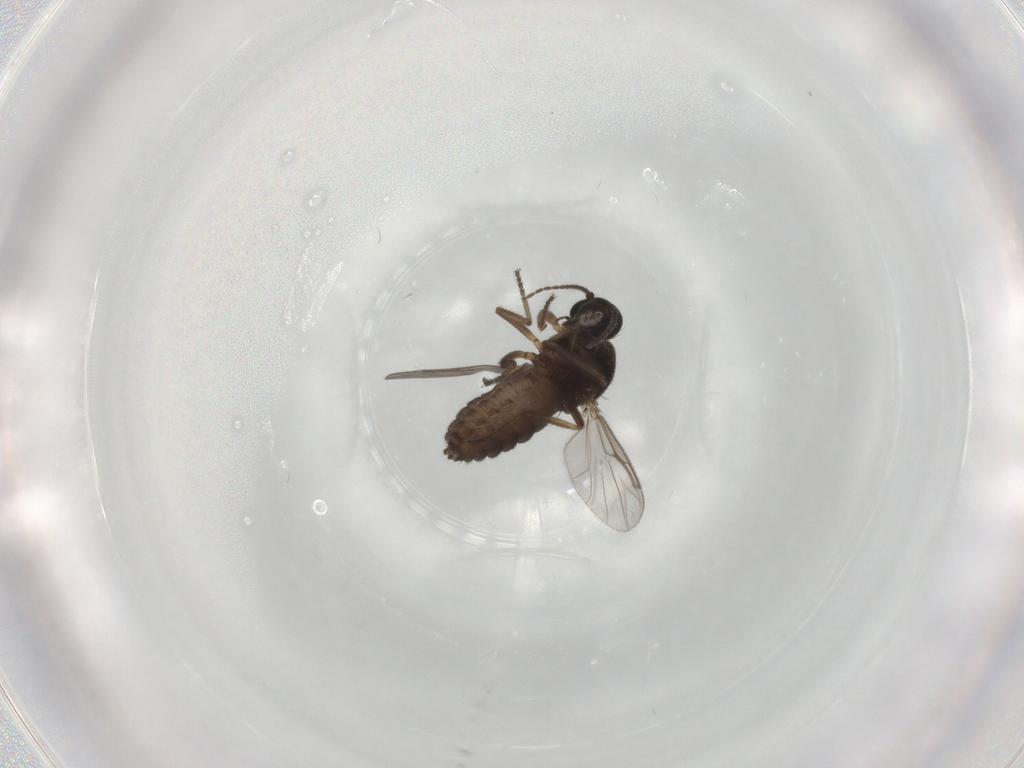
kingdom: Animalia
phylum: Arthropoda
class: Insecta
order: Diptera
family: Ceratopogonidae
